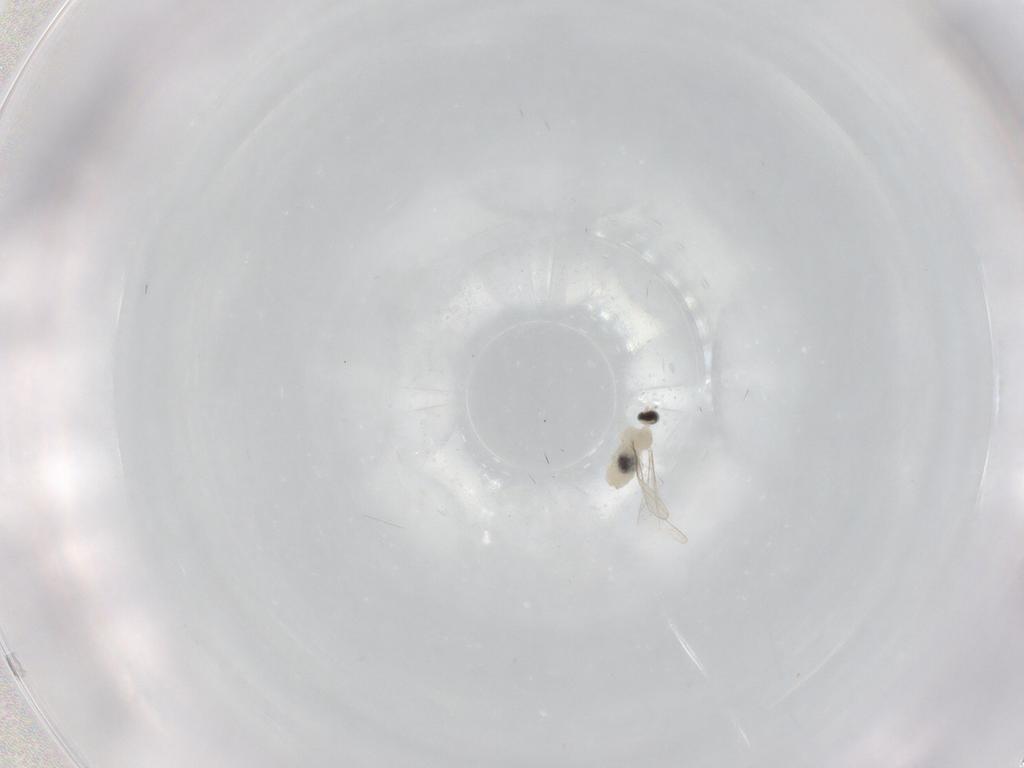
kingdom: Animalia
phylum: Arthropoda
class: Insecta
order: Diptera
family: Cecidomyiidae
